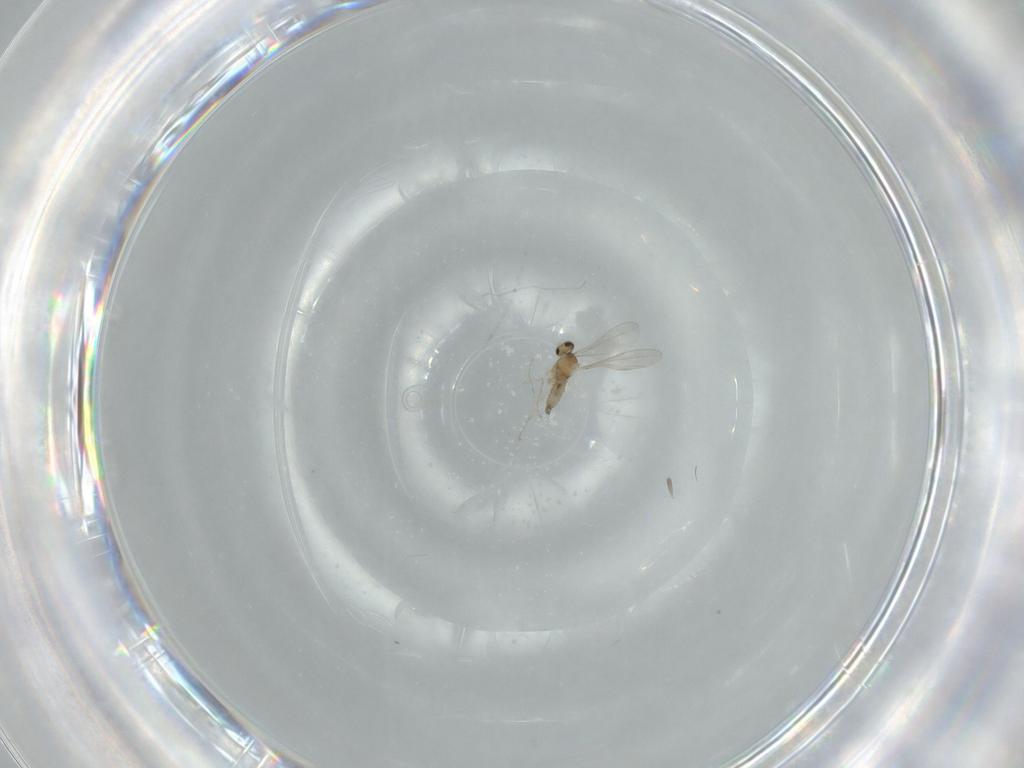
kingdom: Animalia
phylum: Arthropoda
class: Insecta
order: Diptera
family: Cecidomyiidae
